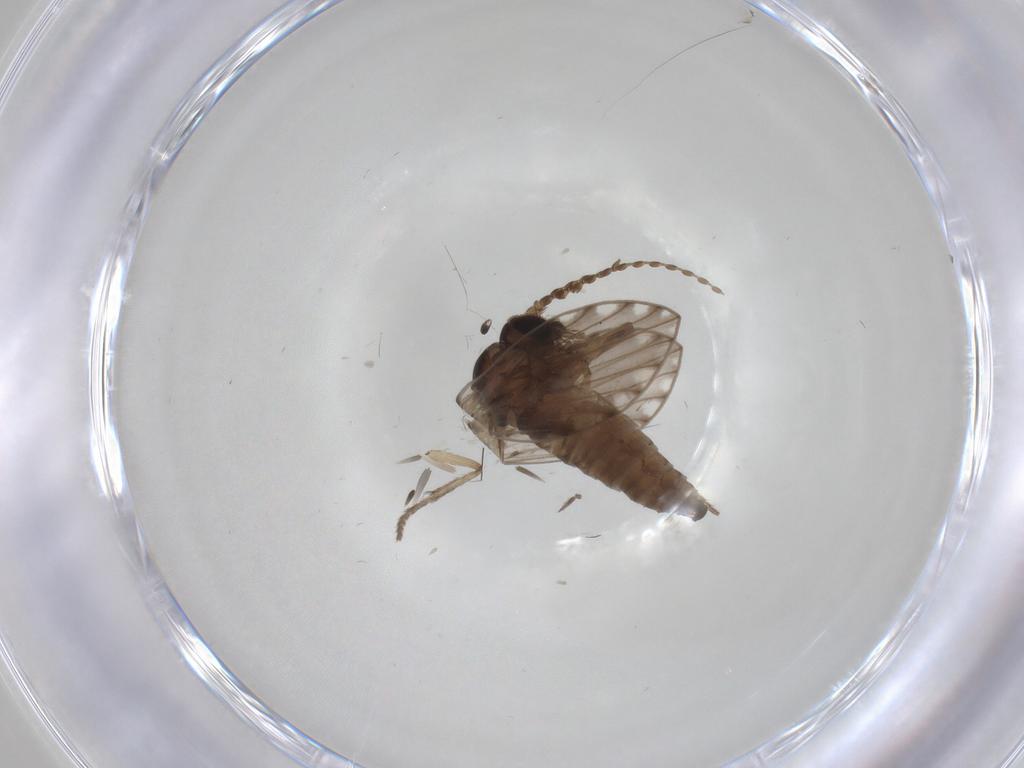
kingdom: Animalia
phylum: Arthropoda
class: Insecta
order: Diptera
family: Psychodidae
